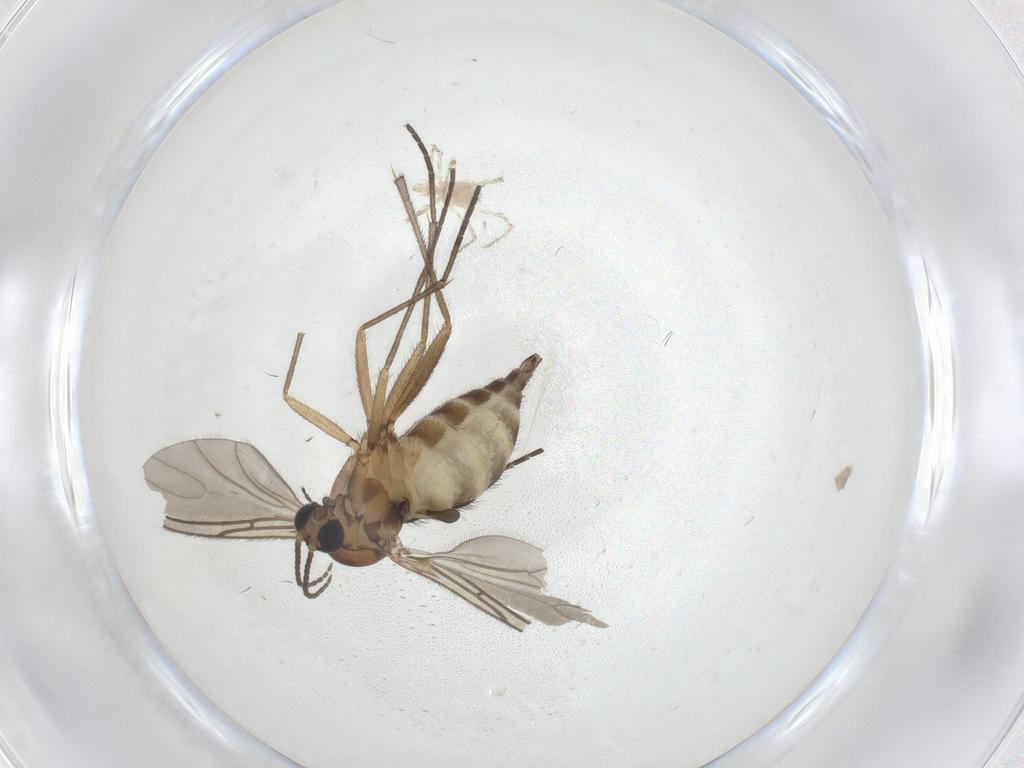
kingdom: Animalia
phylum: Arthropoda
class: Insecta
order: Diptera
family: Sciaridae
